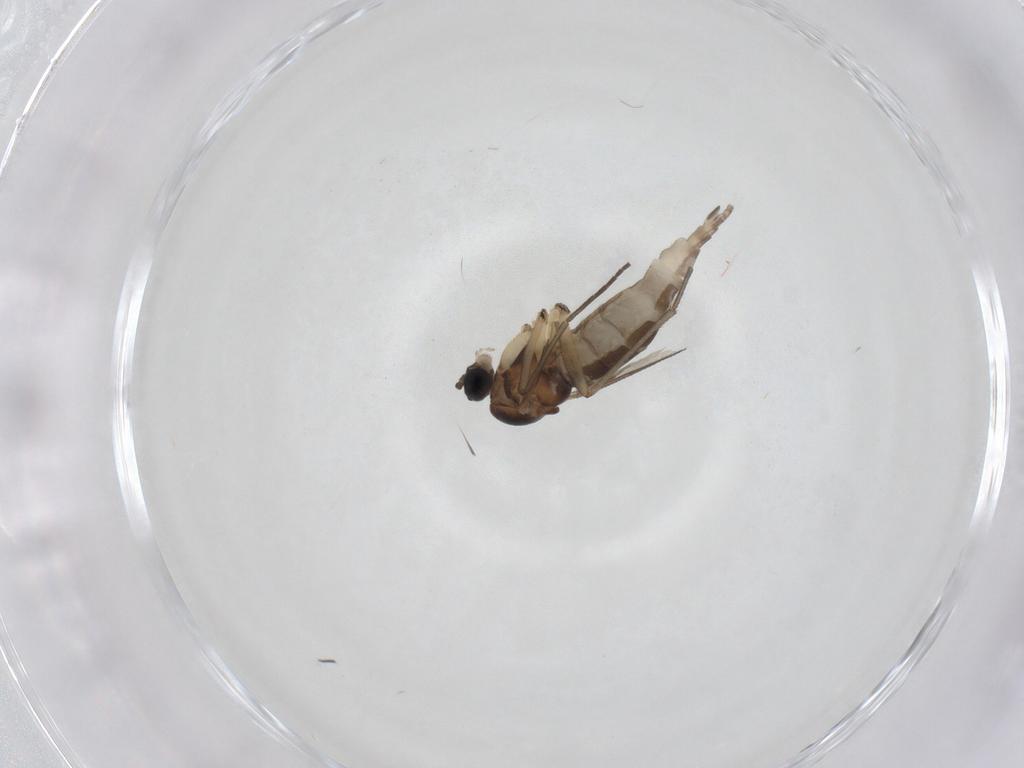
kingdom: Animalia
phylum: Arthropoda
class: Insecta
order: Diptera
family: Sciaridae
